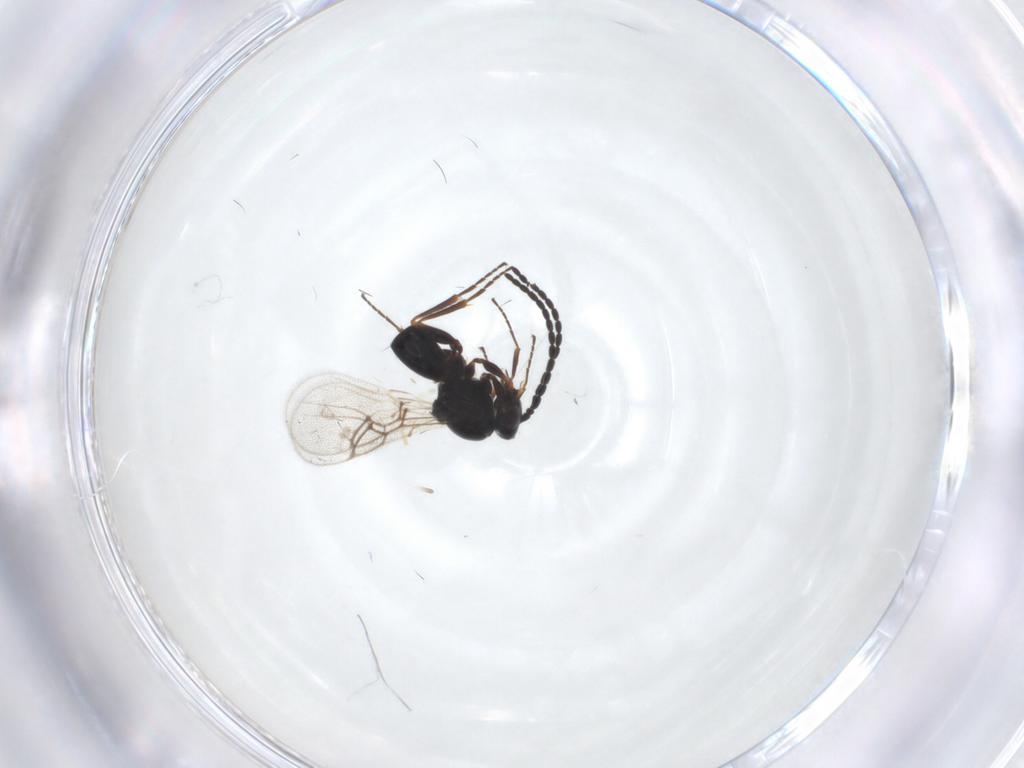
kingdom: Animalia
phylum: Arthropoda
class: Insecta
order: Hymenoptera
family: Figitidae
